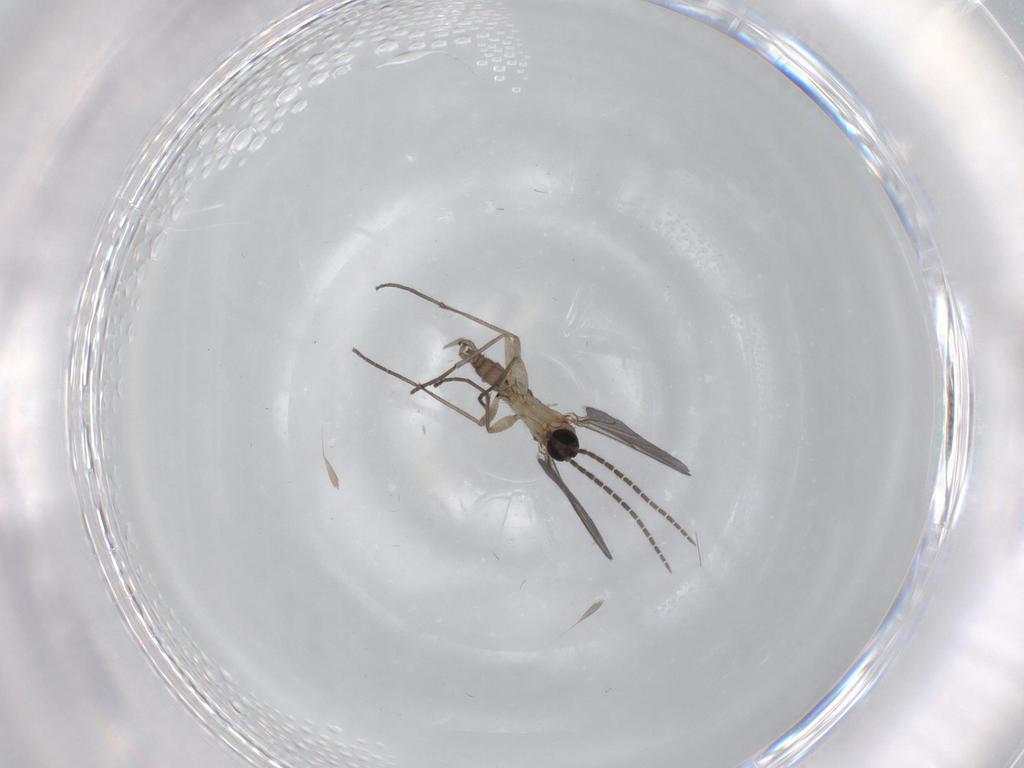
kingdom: Animalia
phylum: Arthropoda
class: Insecta
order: Diptera
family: Sciaridae
